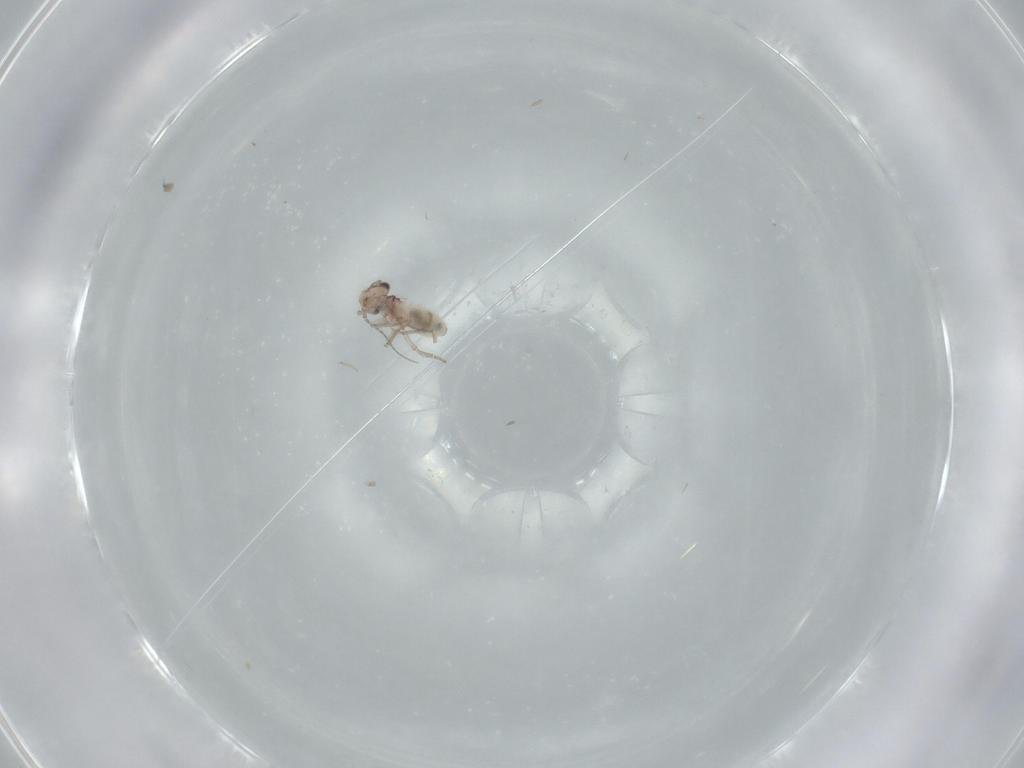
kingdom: Animalia
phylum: Arthropoda
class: Insecta
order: Psocodea
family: Lepidopsocidae
